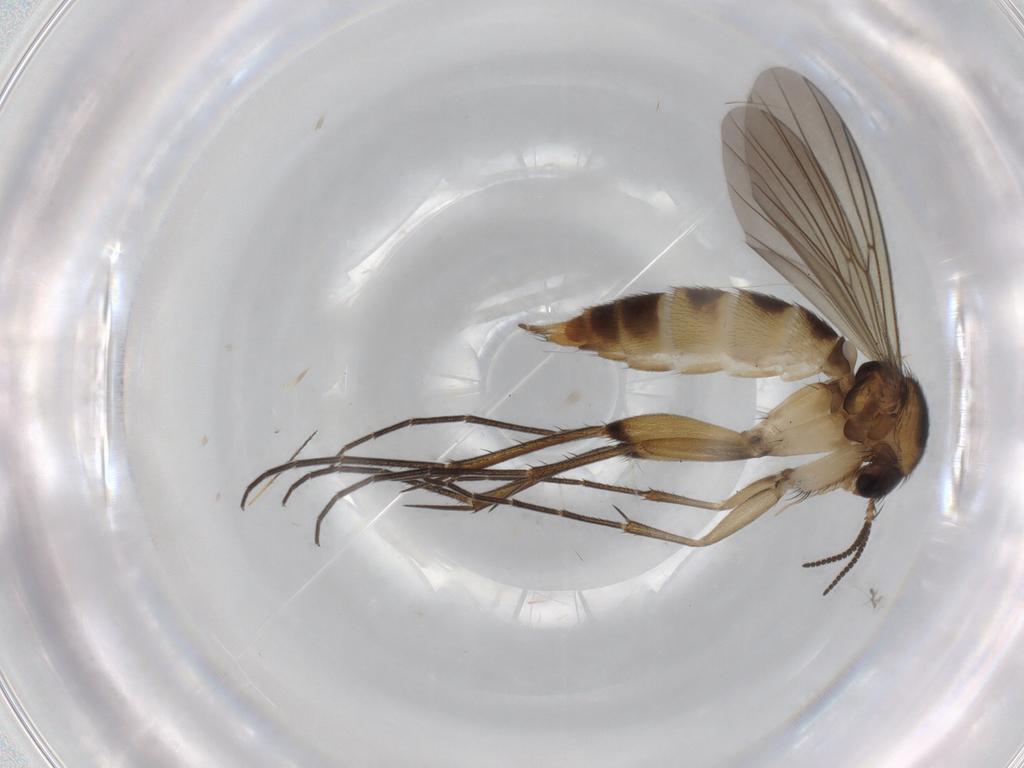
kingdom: Animalia
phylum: Arthropoda
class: Insecta
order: Diptera
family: Mycetophilidae
